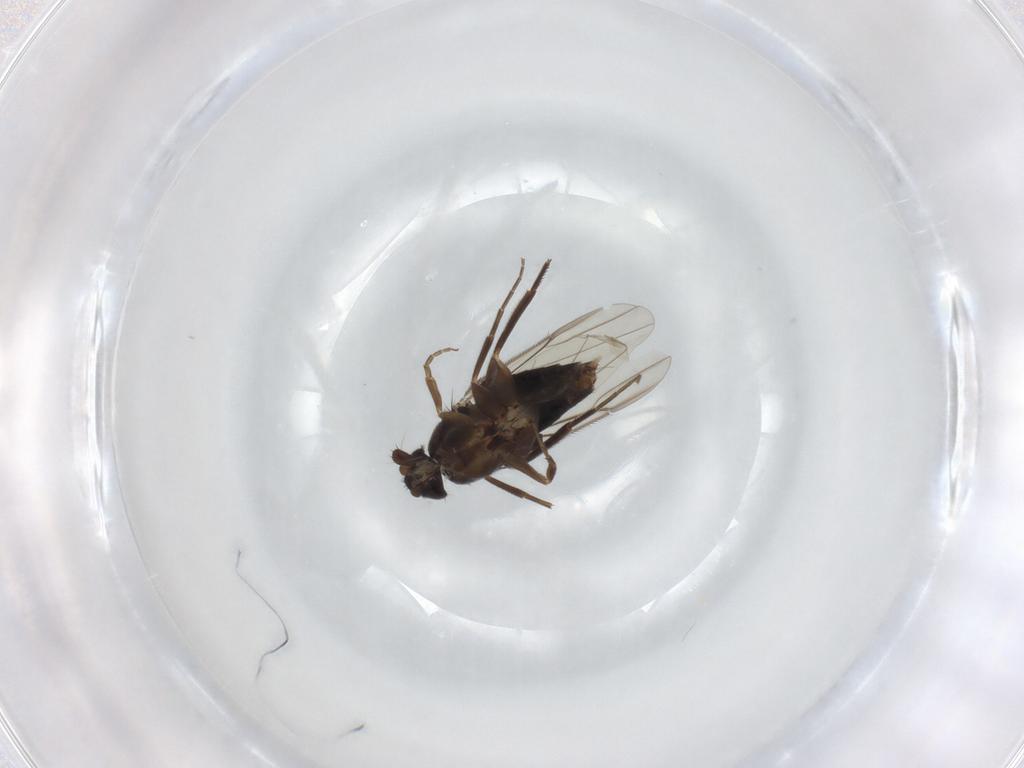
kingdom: Animalia
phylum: Arthropoda
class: Insecta
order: Diptera
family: Phoridae
